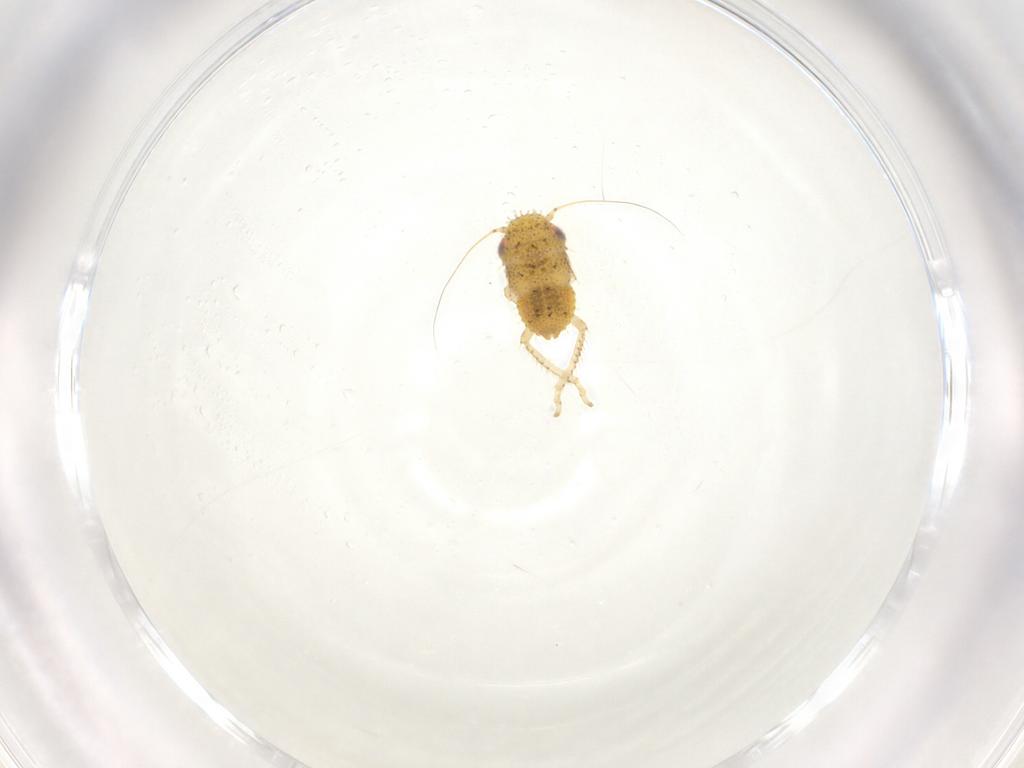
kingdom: Animalia
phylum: Arthropoda
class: Insecta
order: Hemiptera
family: Cicadellidae
